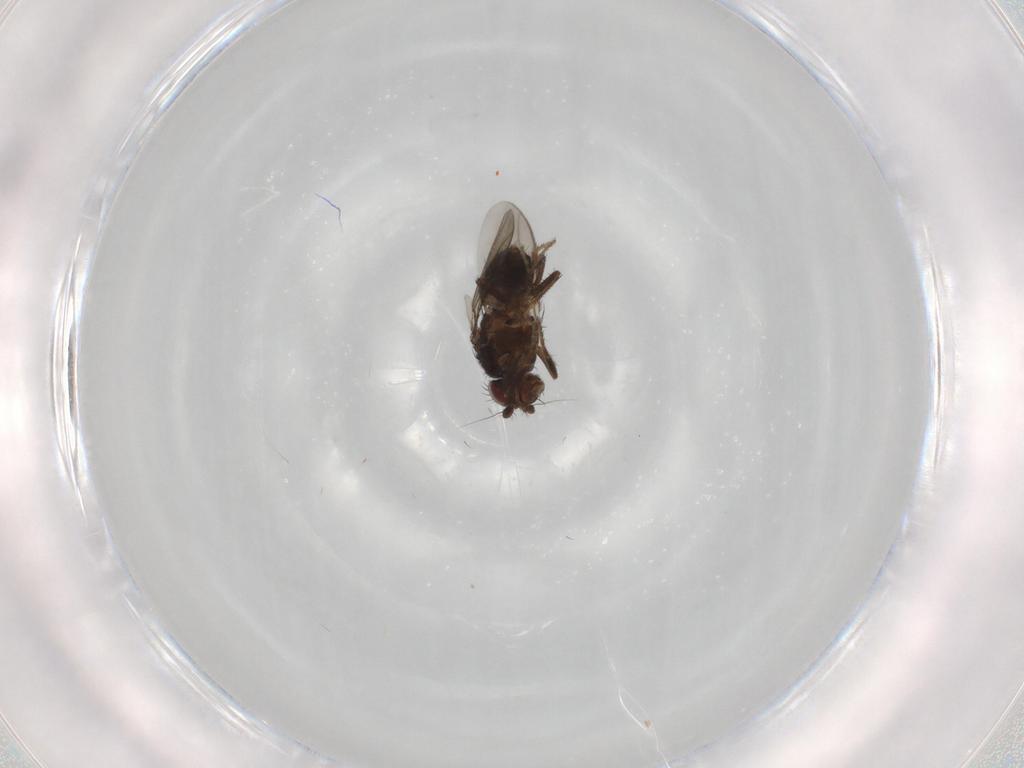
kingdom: Animalia
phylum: Arthropoda
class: Insecta
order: Diptera
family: Sphaeroceridae
